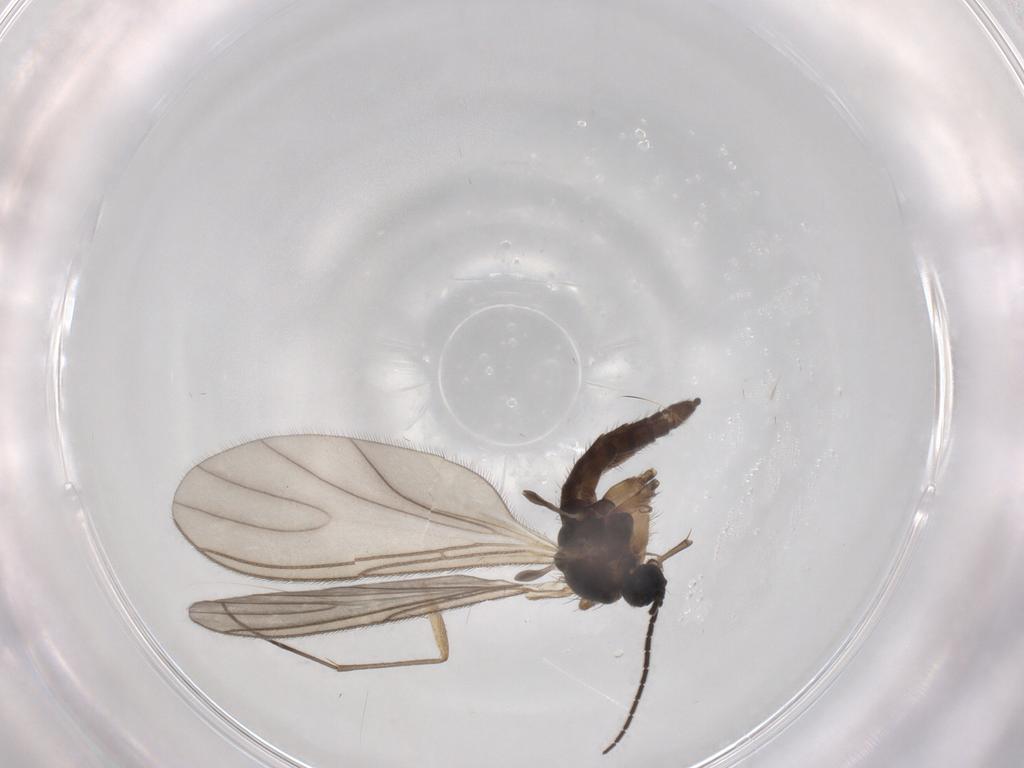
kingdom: Animalia
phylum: Arthropoda
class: Insecta
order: Diptera
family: Sciaridae
